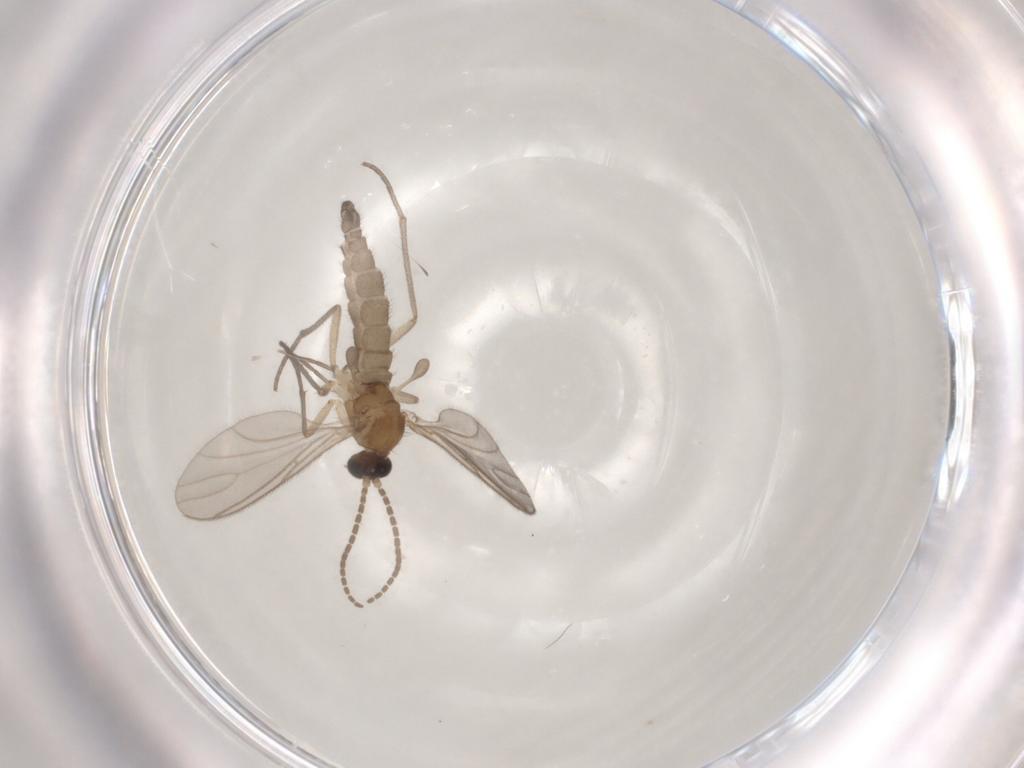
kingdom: Animalia
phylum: Arthropoda
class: Insecta
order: Diptera
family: Sciaridae
